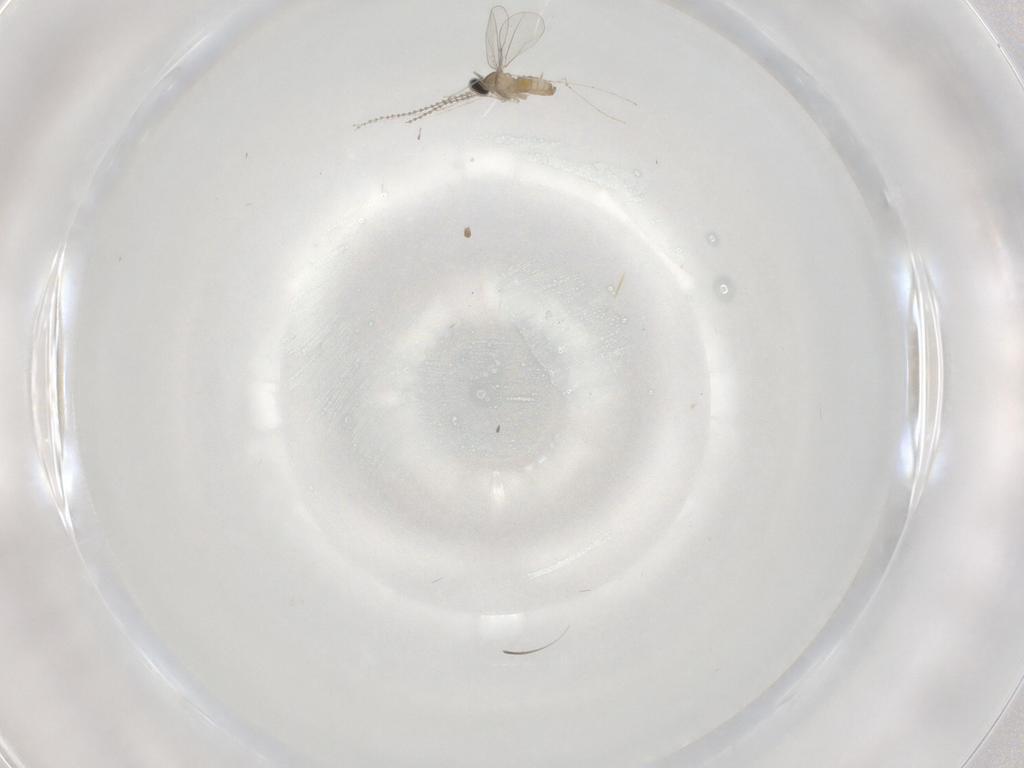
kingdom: Animalia
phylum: Arthropoda
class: Insecta
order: Diptera
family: Cecidomyiidae
